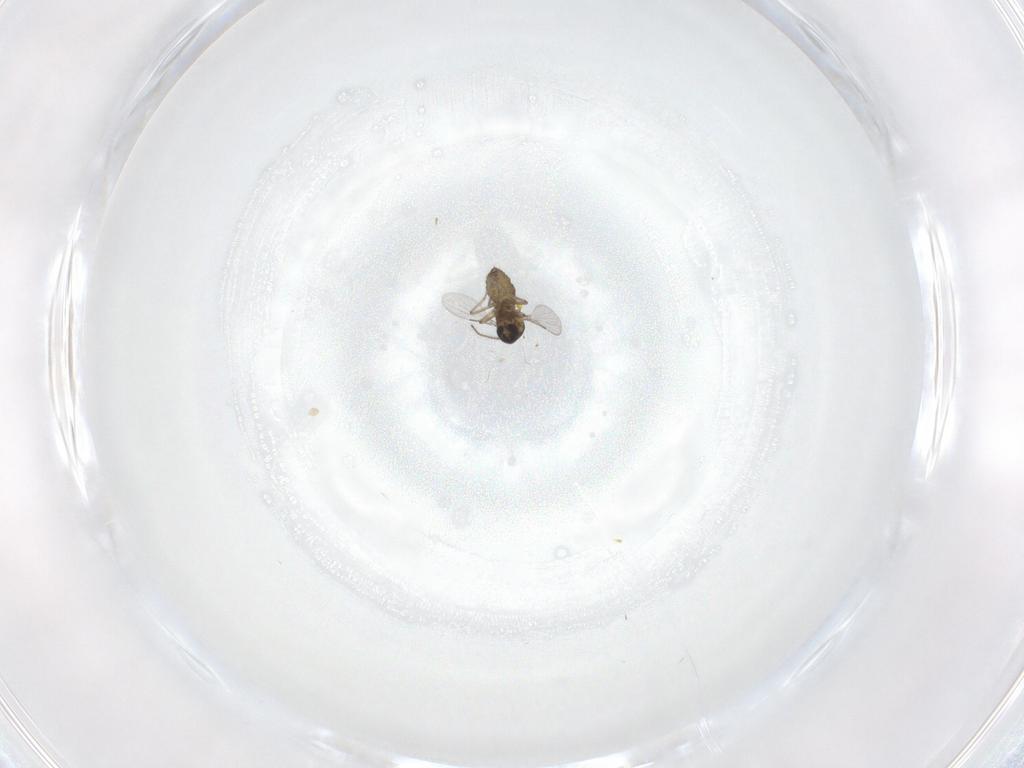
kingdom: Animalia
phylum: Arthropoda
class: Insecta
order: Diptera
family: Ceratopogonidae
